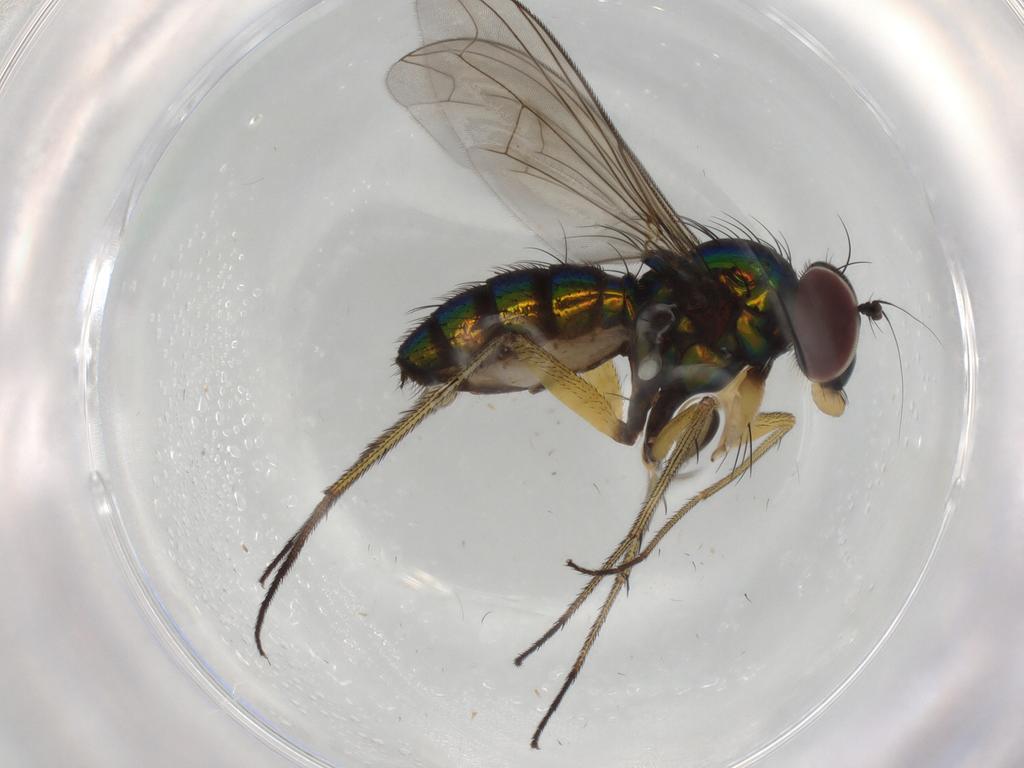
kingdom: Animalia
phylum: Arthropoda
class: Insecta
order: Diptera
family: Dolichopodidae
